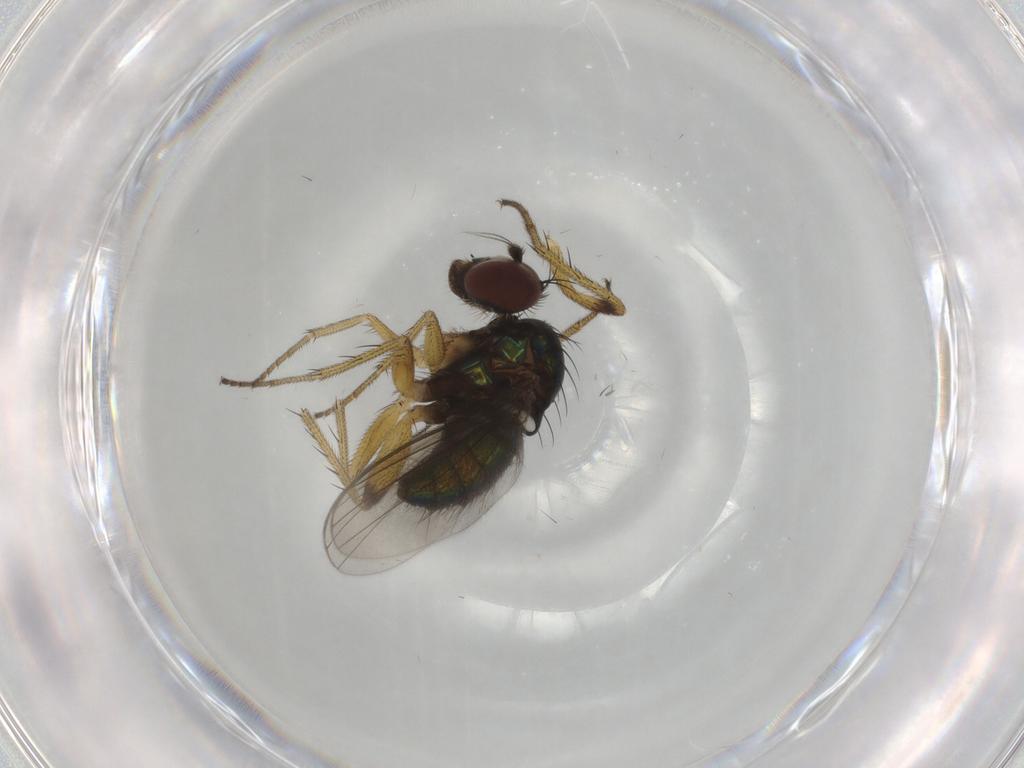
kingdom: Animalia
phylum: Arthropoda
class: Insecta
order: Diptera
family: Dolichopodidae
